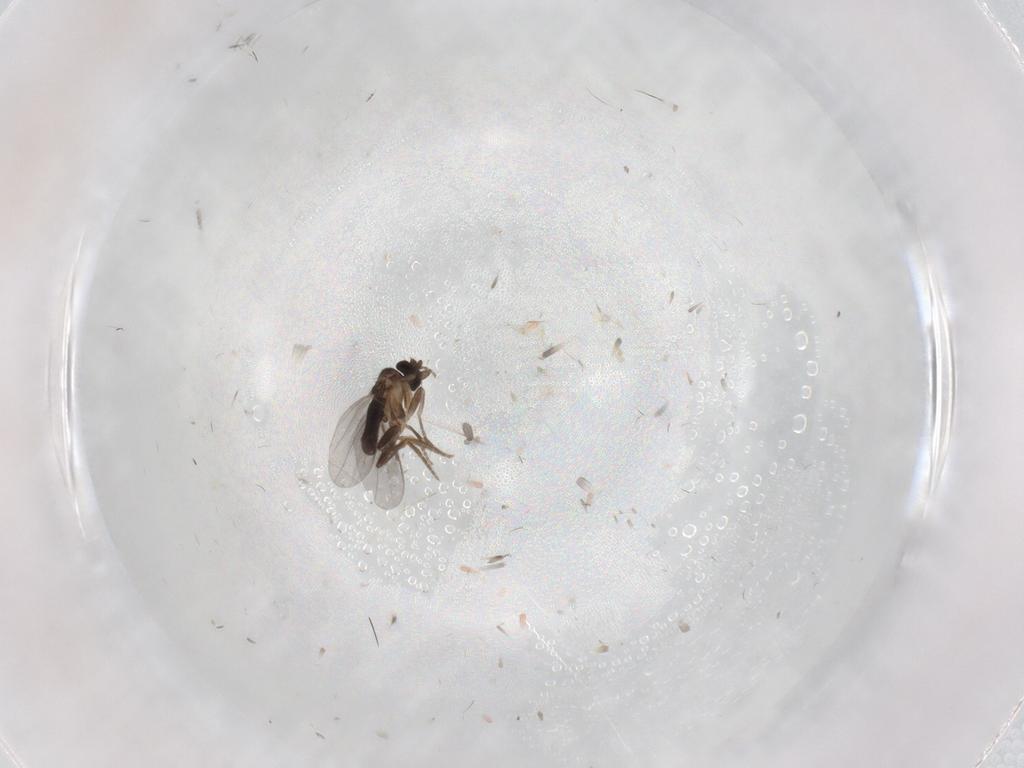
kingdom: Animalia
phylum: Arthropoda
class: Insecta
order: Diptera
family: Cecidomyiidae
